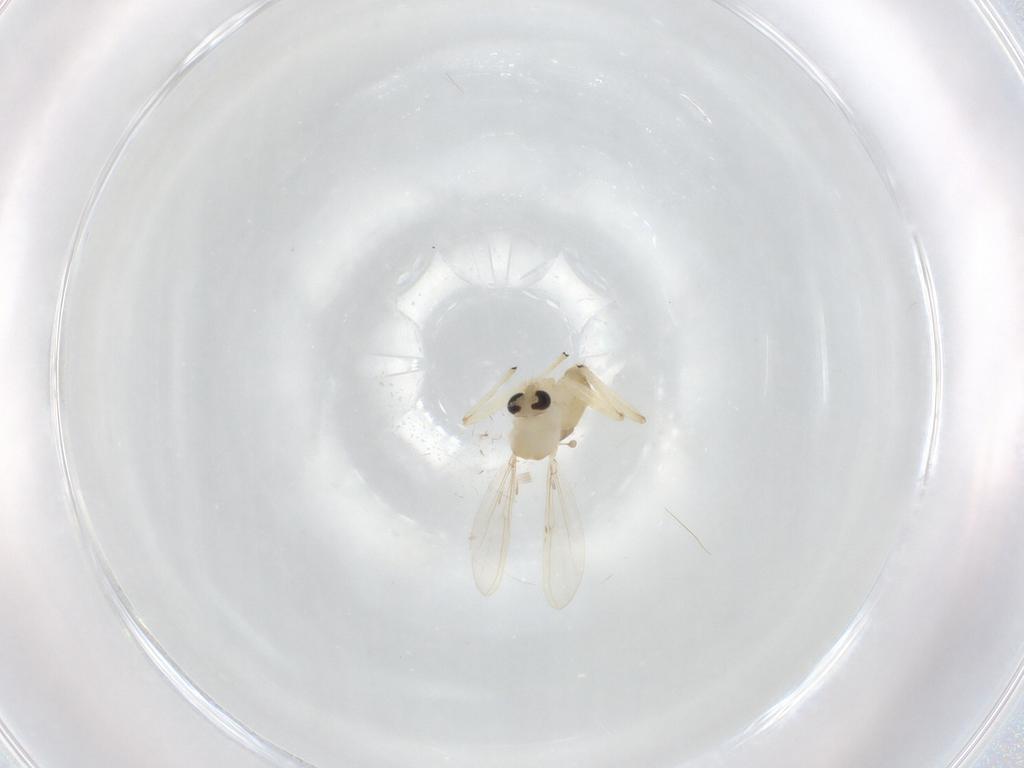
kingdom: Animalia
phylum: Arthropoda
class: Insecta
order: Diptera
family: Chironomidae
